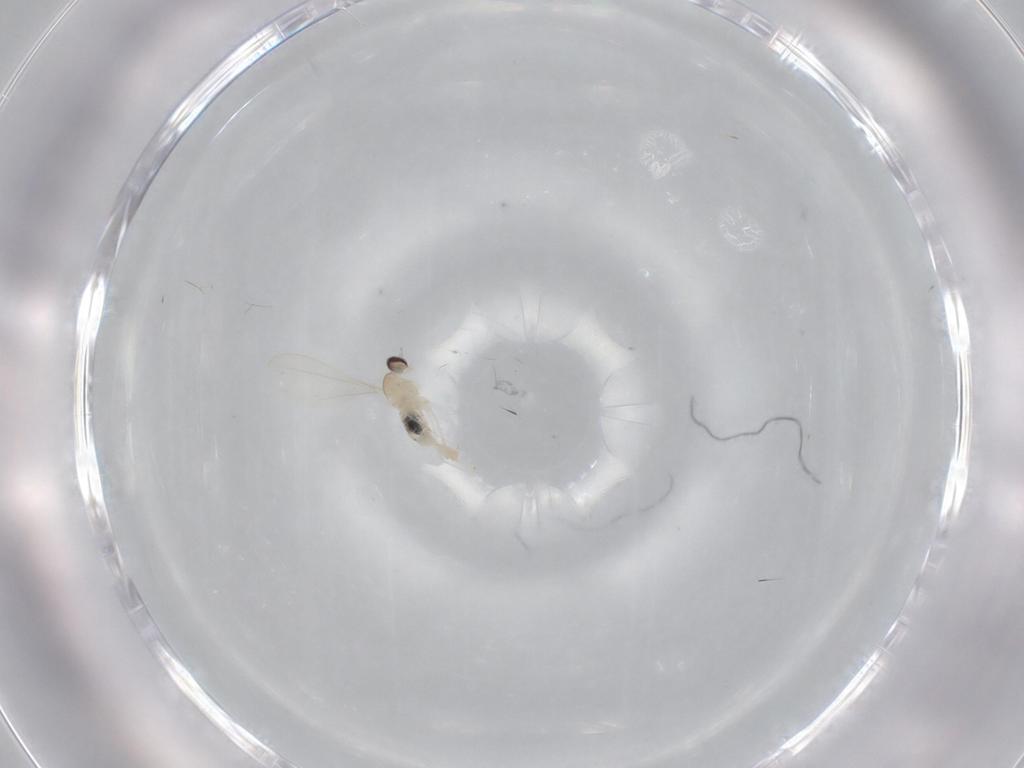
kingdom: Animalia
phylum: Arthropoda
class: Insecta
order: Diptera
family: Cecidomyiidae
